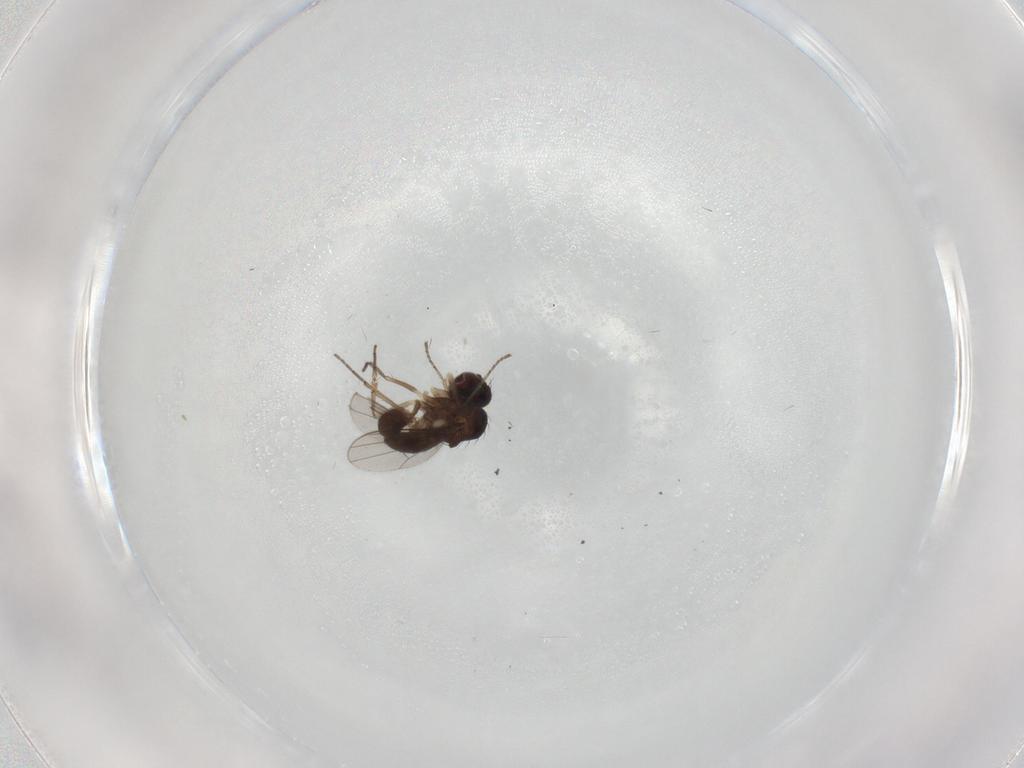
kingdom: Animalia
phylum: Arthropoda
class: Insecta
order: Diptera
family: Dolichopodidae
